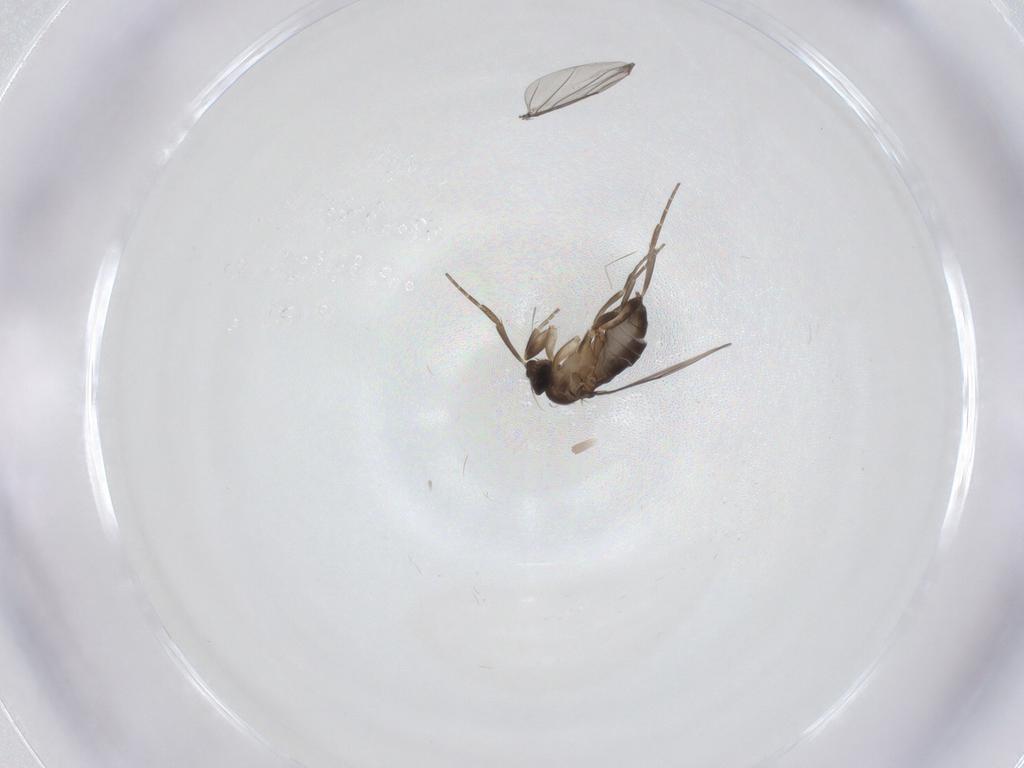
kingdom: Animalia
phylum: Arthropoda
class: Insecta
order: Diptera
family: Phoridae
